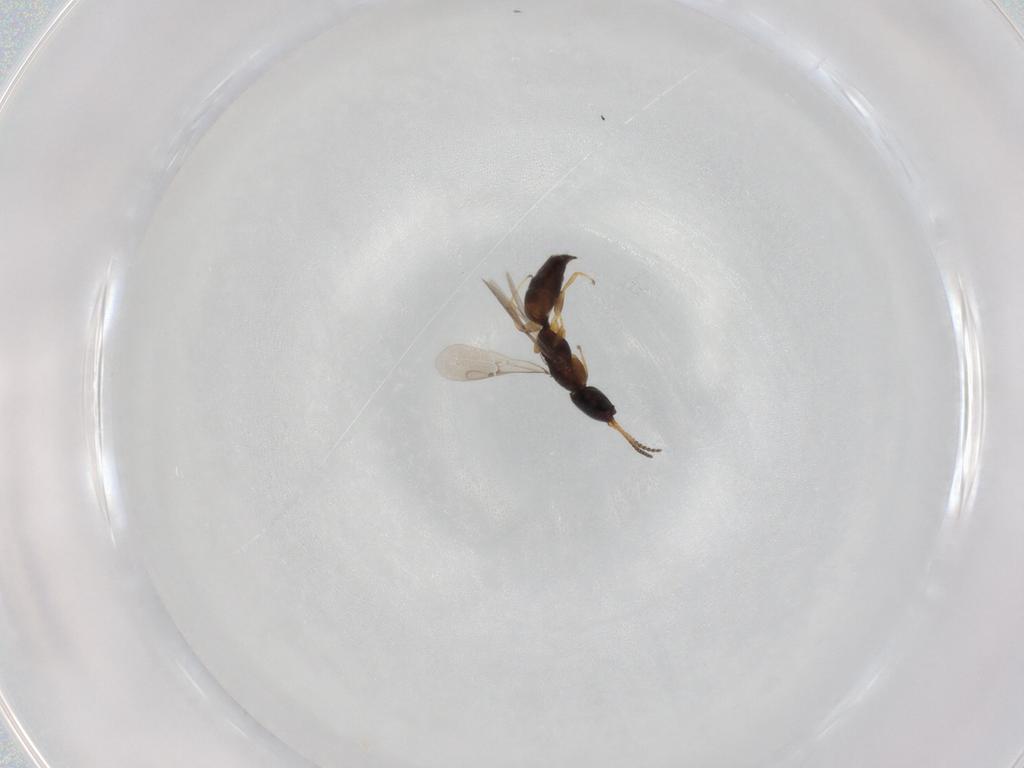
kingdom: Animalia
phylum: Arthropoda
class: Insecta
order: Hymenoptera
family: Bethylidae
